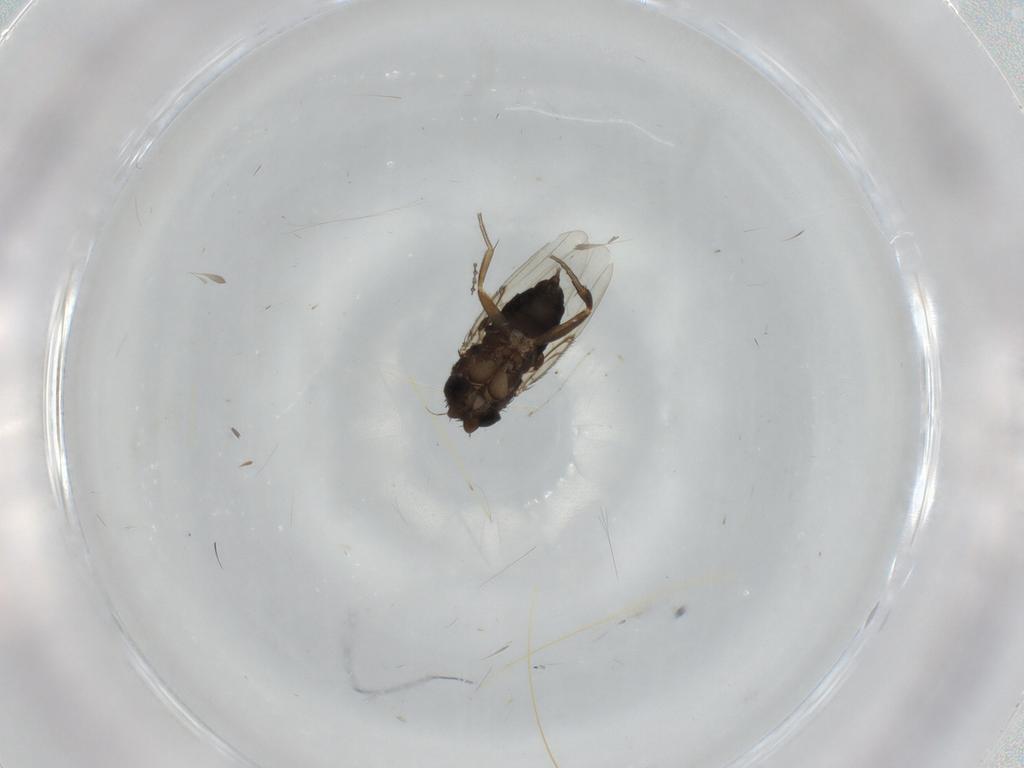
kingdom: Animalia
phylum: Arthropoda
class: Insecta
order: Diptera
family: Cecidomyiidae
